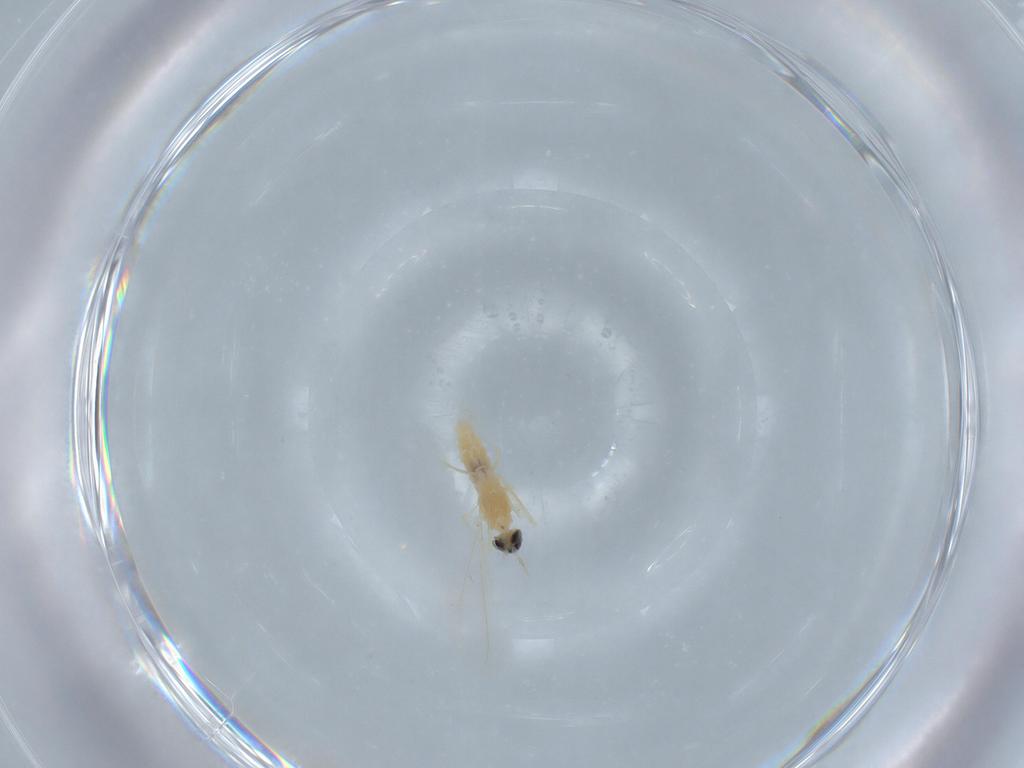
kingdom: Animalia
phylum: Arthropoda
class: Insecta
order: Diptera
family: Cecidomyiidae
